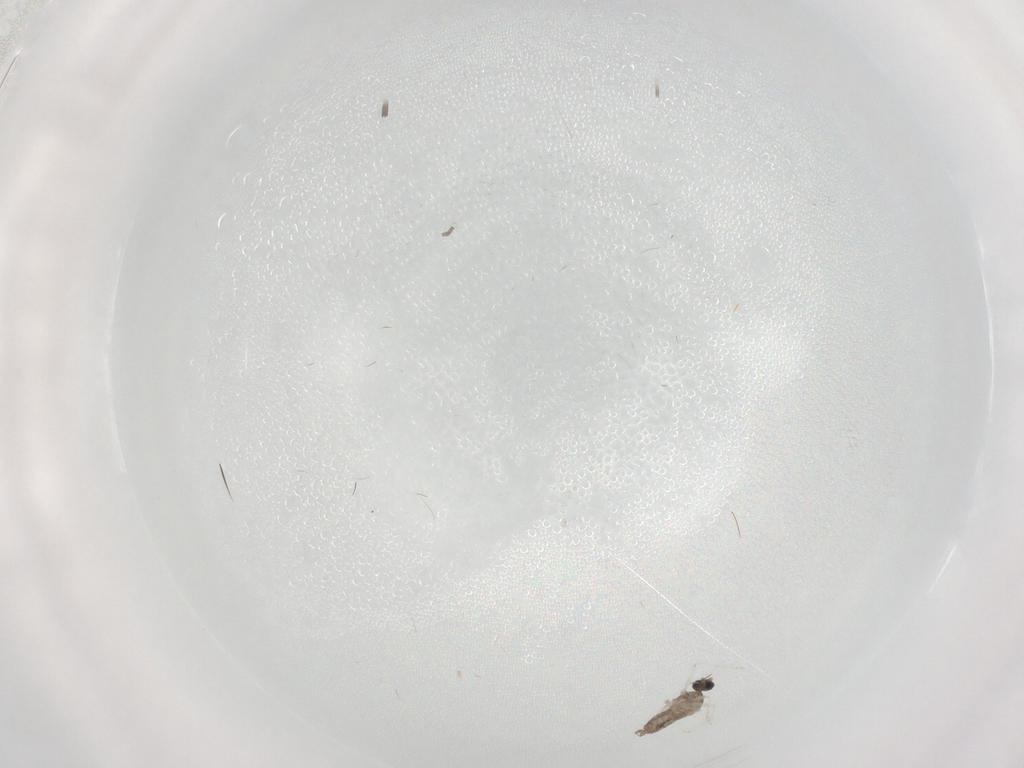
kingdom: Animalia
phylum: Arthropoda
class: Insecta
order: Diptera
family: Cecidomyiidae
